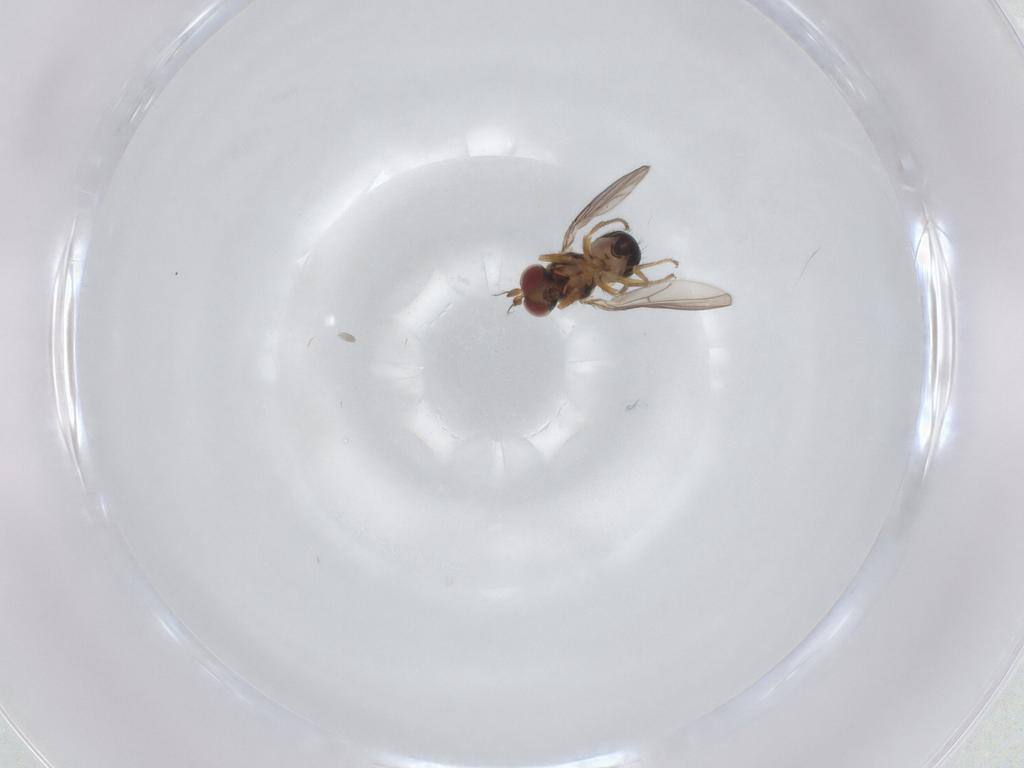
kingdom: Animalia
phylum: Arthropoda
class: Insecta
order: Diptera
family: Ephydridae
